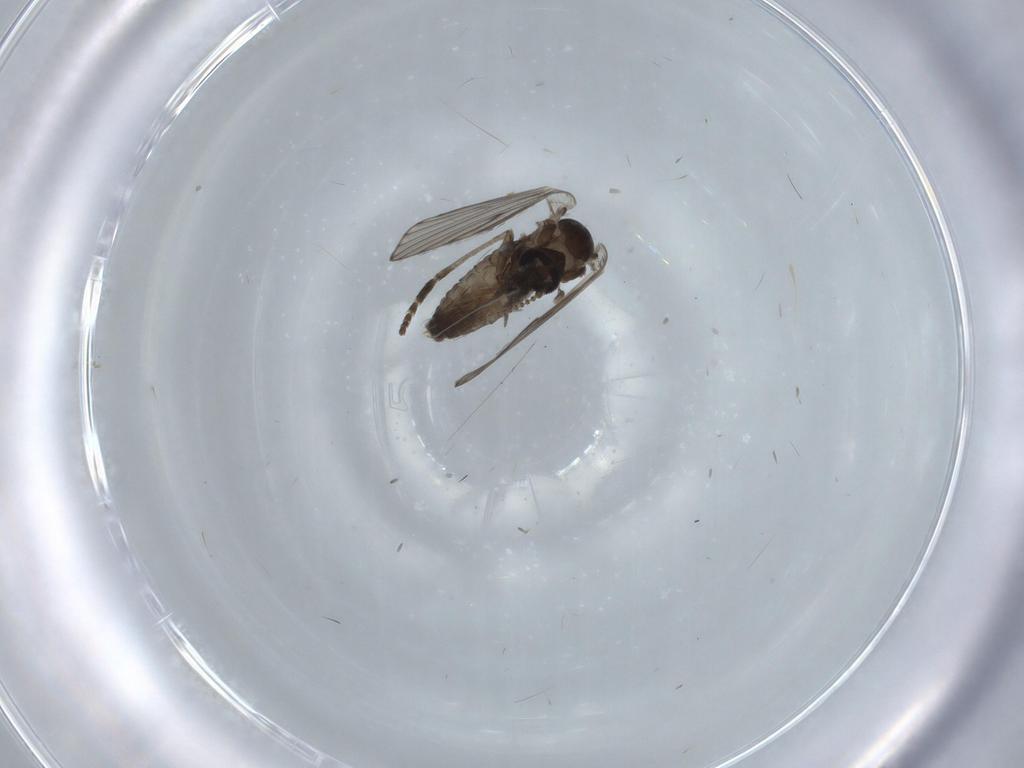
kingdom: Animalia
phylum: Arthropoda
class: Insecta
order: Diptera
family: Psychodidae
